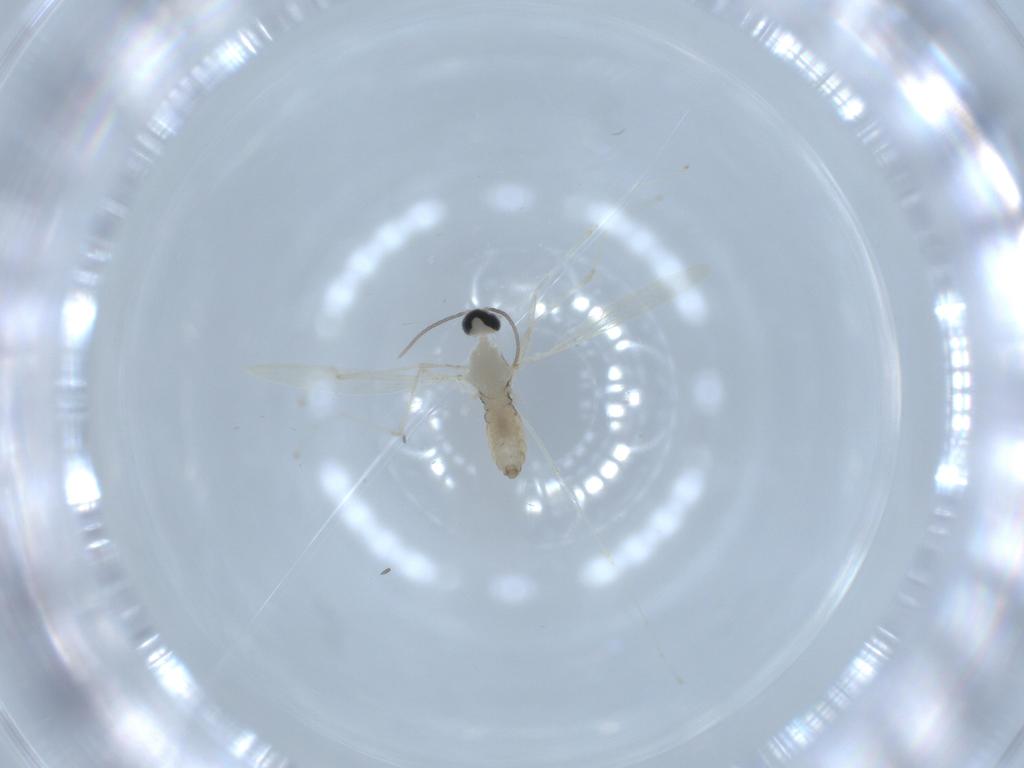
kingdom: Animalia
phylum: Arthropoda
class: Insecta
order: Diptera
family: Cecidomyiidae
